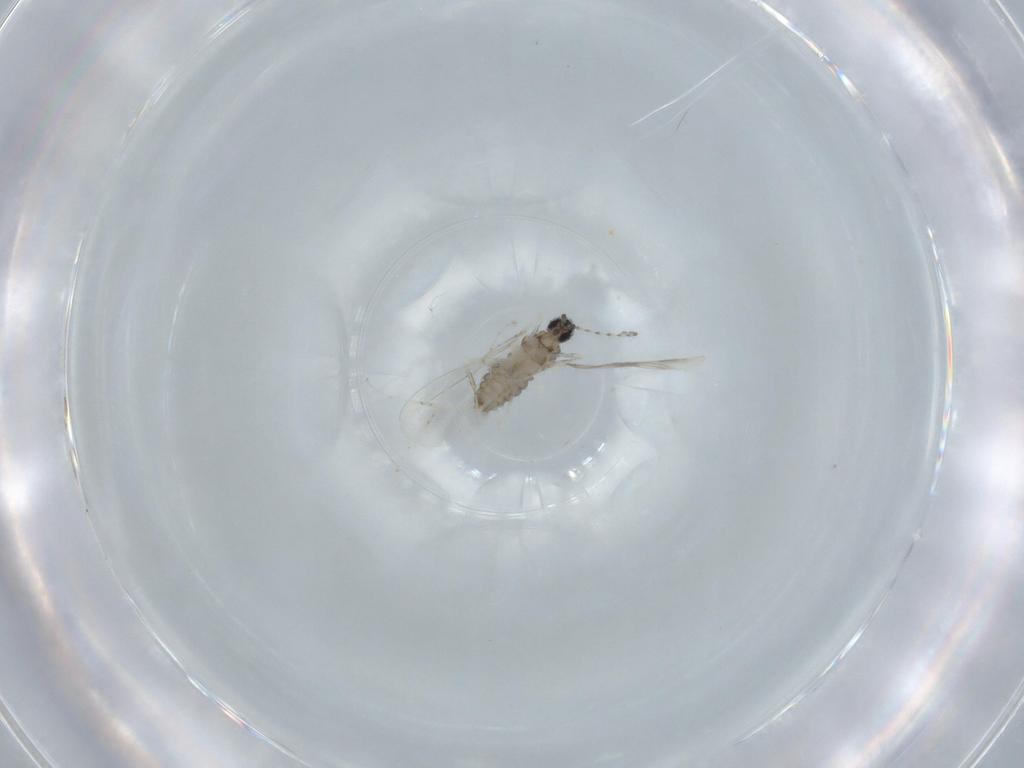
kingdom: Animalia
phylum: Arthropoda
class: Insecta
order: Diptera
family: Cecidomyiidae
